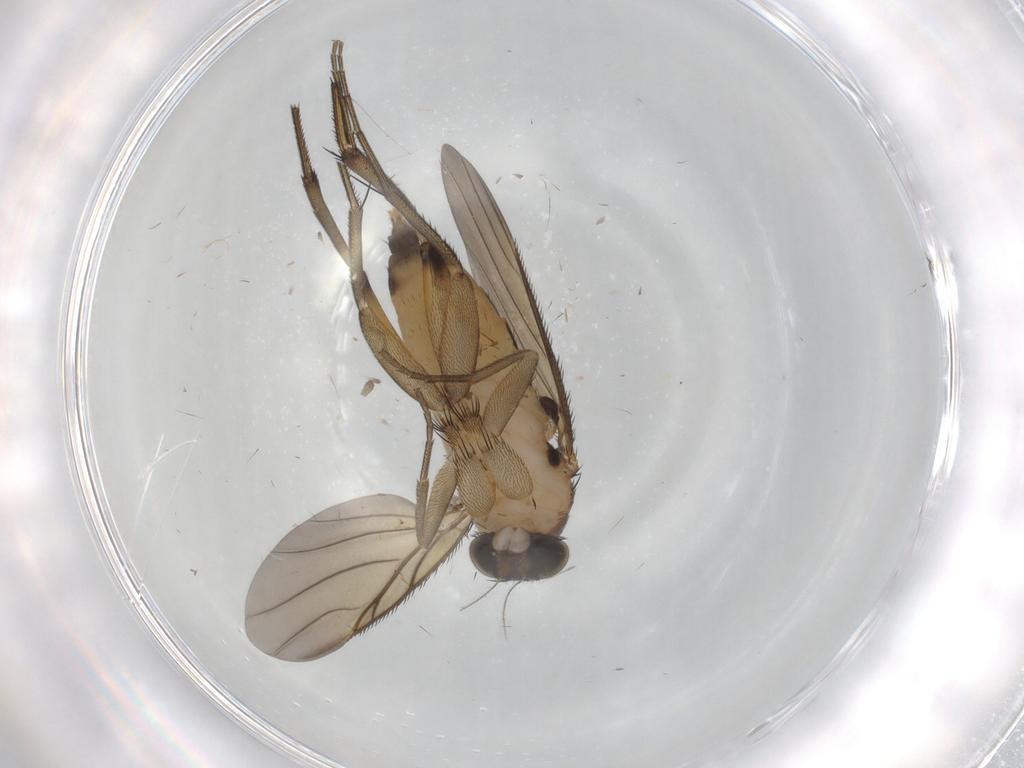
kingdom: Animalia
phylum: Arthropoda
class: Insecta
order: Diptera
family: Phoridae
